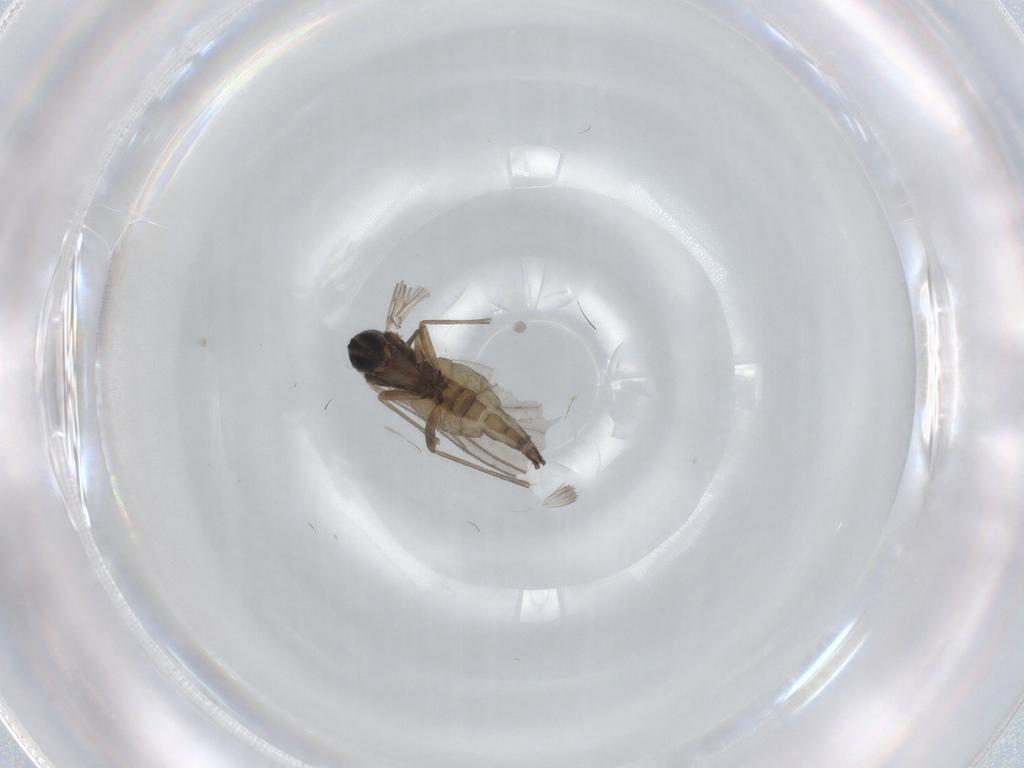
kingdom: Animalia
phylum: Arthropoda
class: Insecta
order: Diptera
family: Sciaridae
